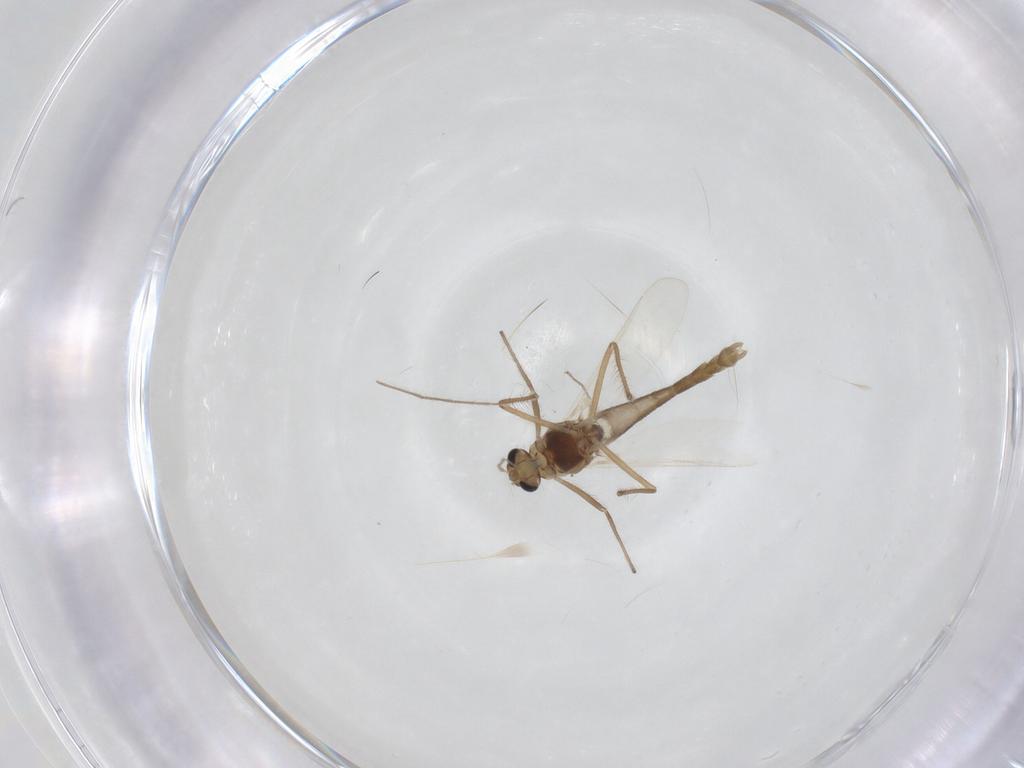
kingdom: Animalia
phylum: Arthropoda
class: Insecta
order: Diptera
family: Chironomidae
